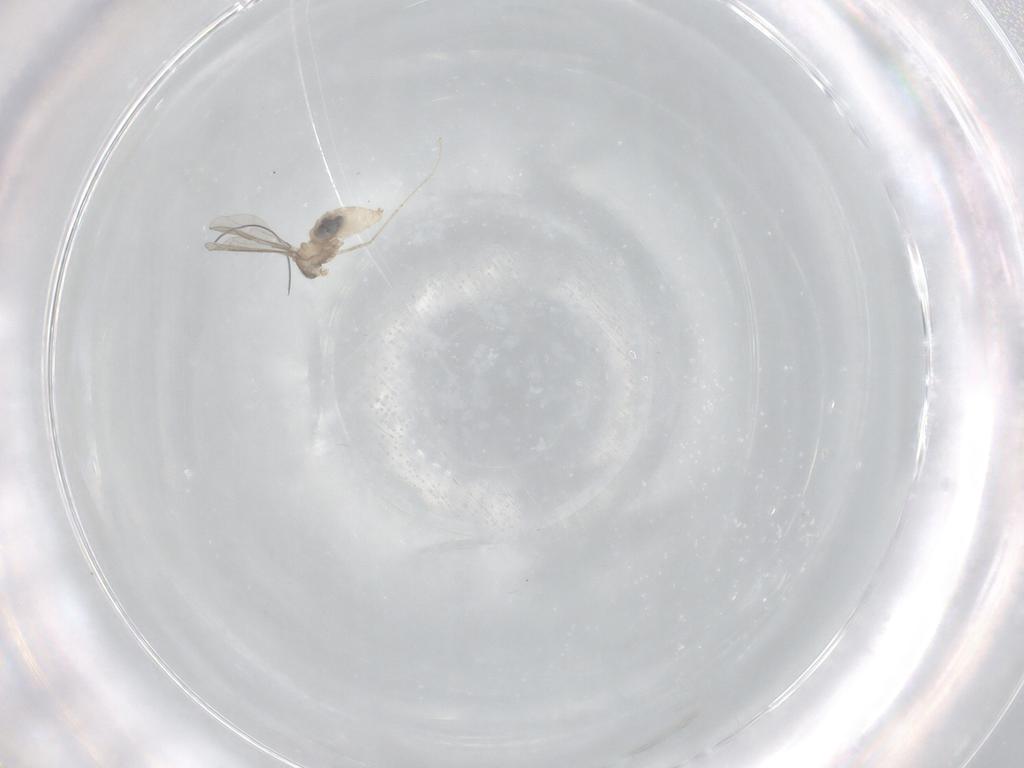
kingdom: Animalia
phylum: Arthropoda
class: Insecta
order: Diptera
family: Cecidomyiidae
